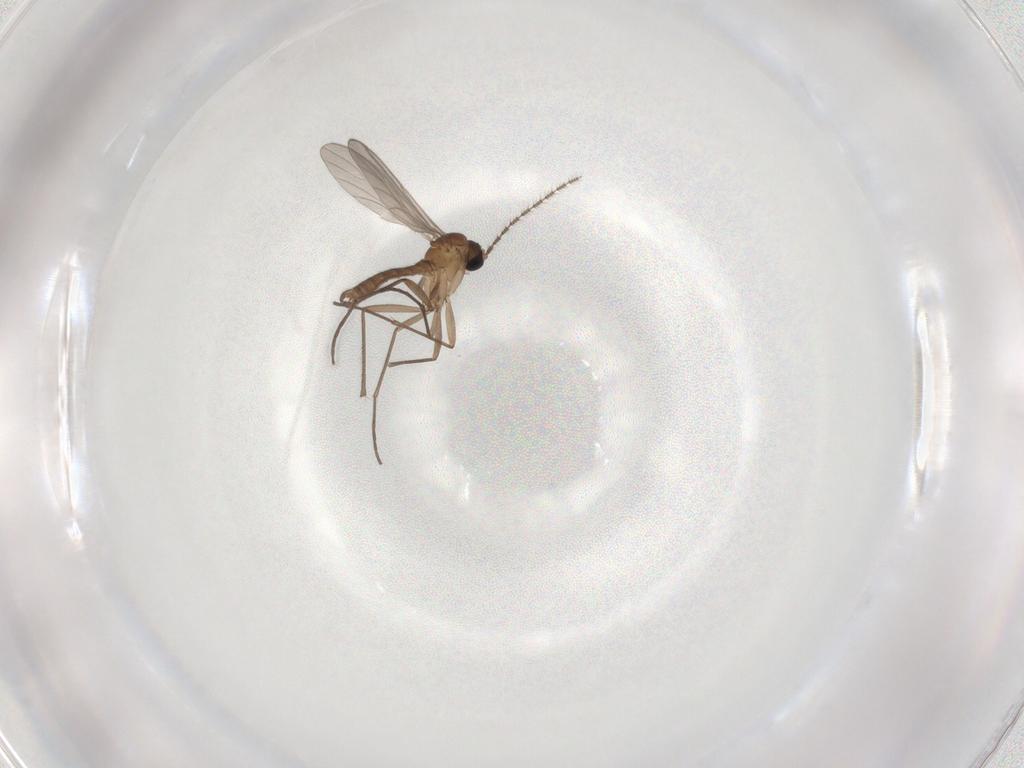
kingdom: Animalia
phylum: Arthropoda
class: Insecta
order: Diptera
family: Sciaridae
